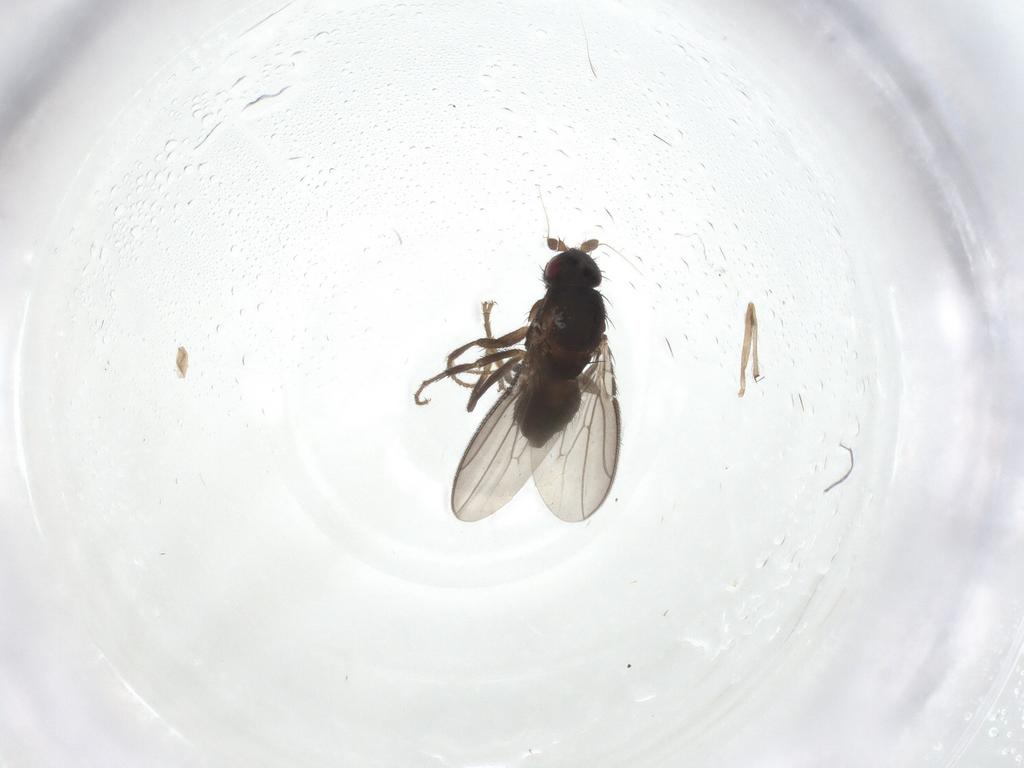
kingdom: Animalia
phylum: Arthropoda
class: Insecta
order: Diptera
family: Sphaeroceridae
